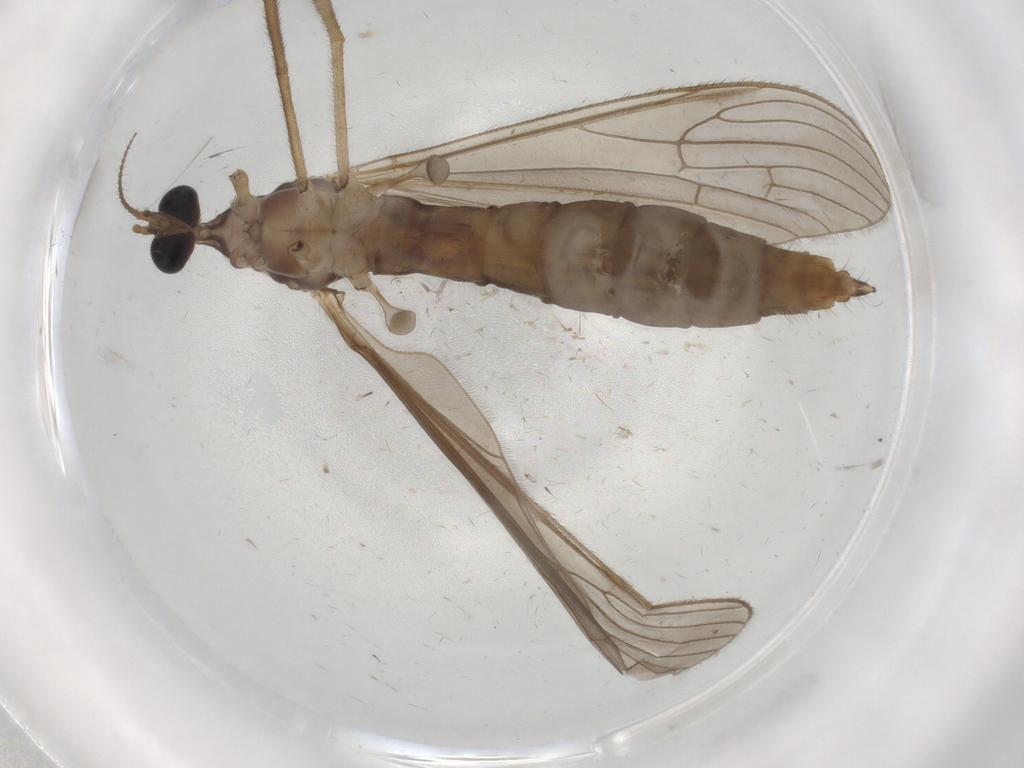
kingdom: Animalia
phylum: Arthropoda
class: Insecta
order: Diptera
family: Limoniidae
